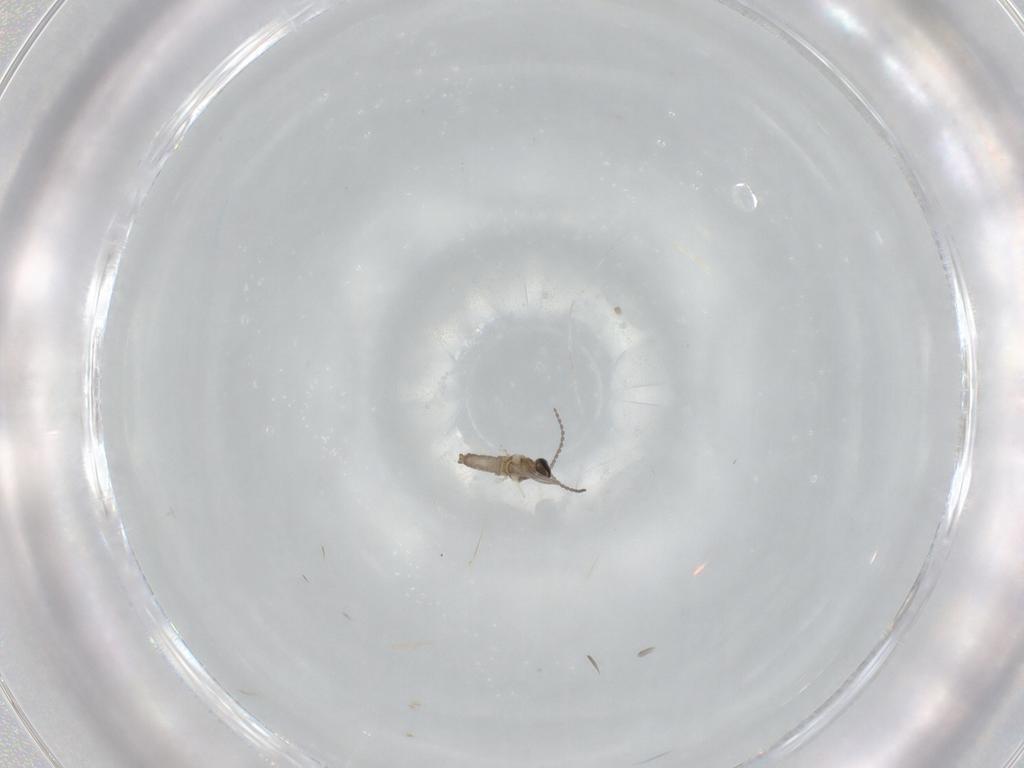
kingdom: Animalia
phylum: Arthropoda
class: Insecta
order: Diptera
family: Cecidomyiidae
